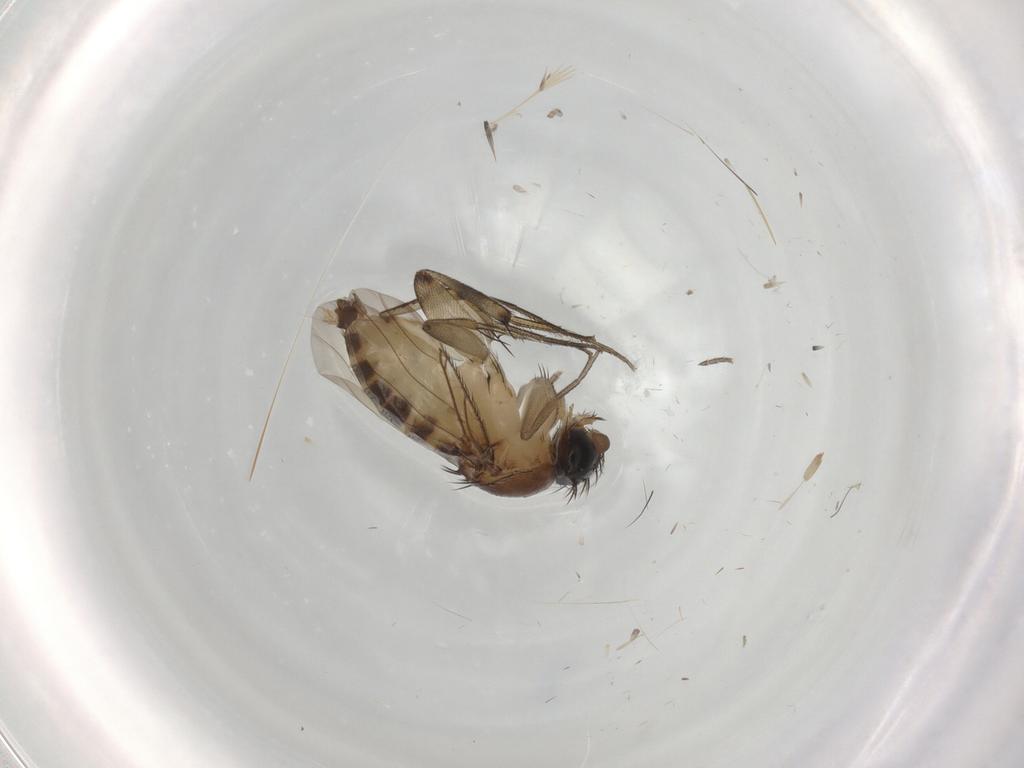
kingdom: Animalia
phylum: Arthropoda
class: Insecta
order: Diptera
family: Phoridae
